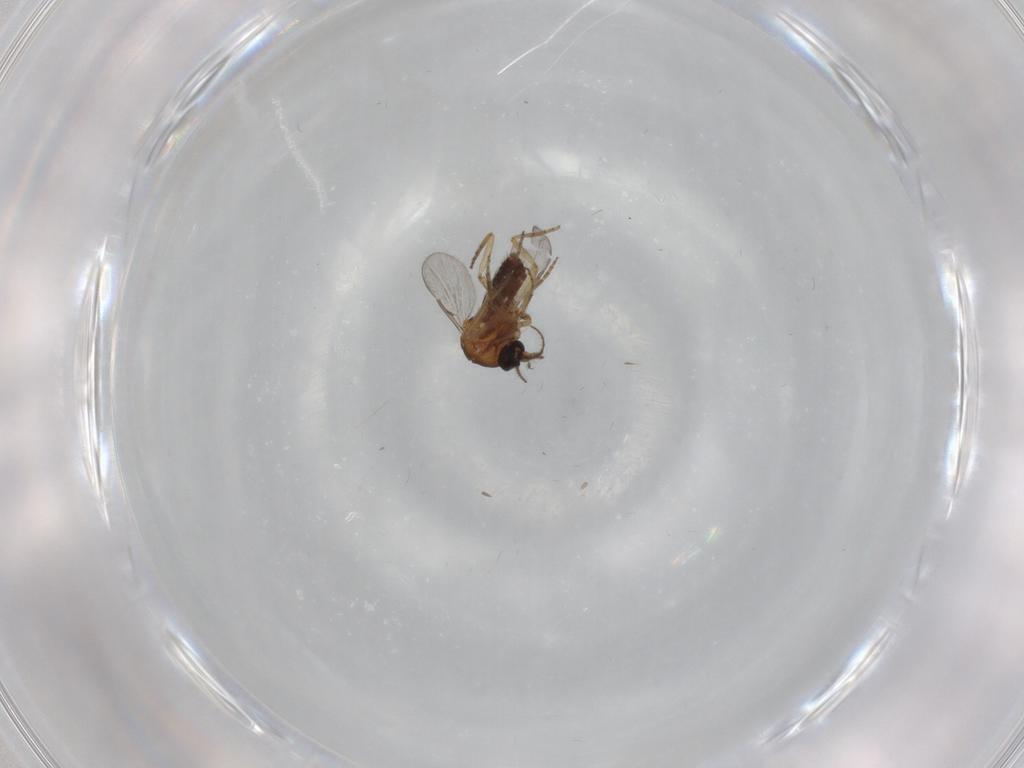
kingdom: Animalia
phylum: Arthropoda
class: Insecta
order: Diptera
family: Ceratopogonidae
